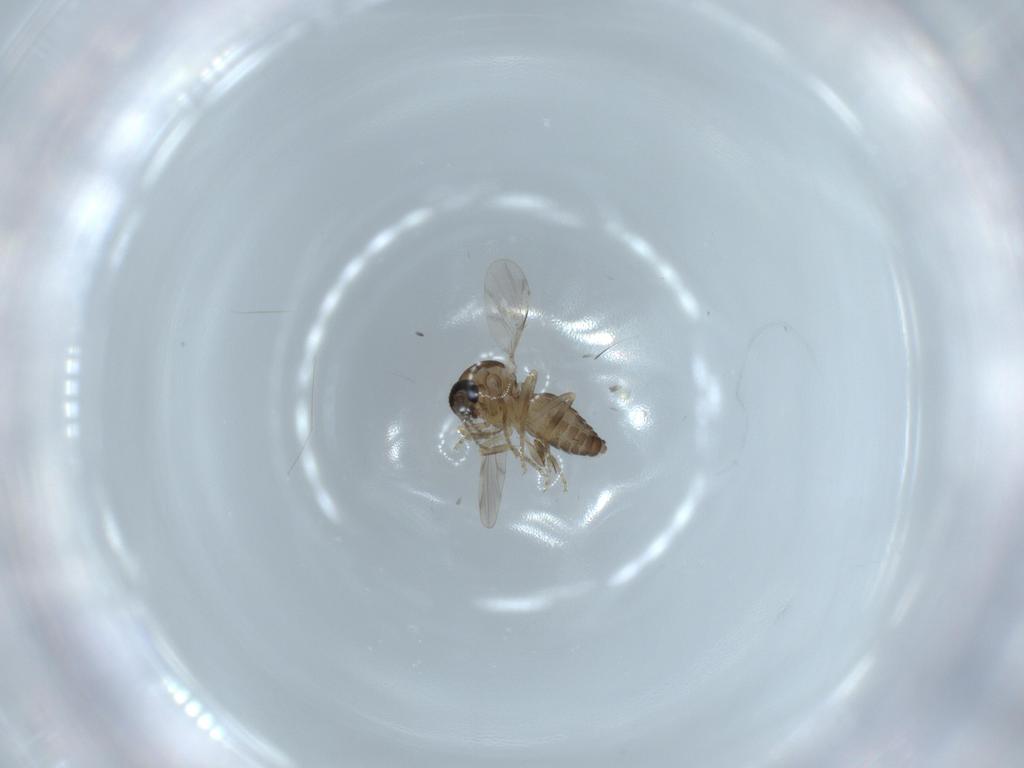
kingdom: Animalia
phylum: Arthropoda
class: Insecta
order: Diptera
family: Ceratopogonidae
